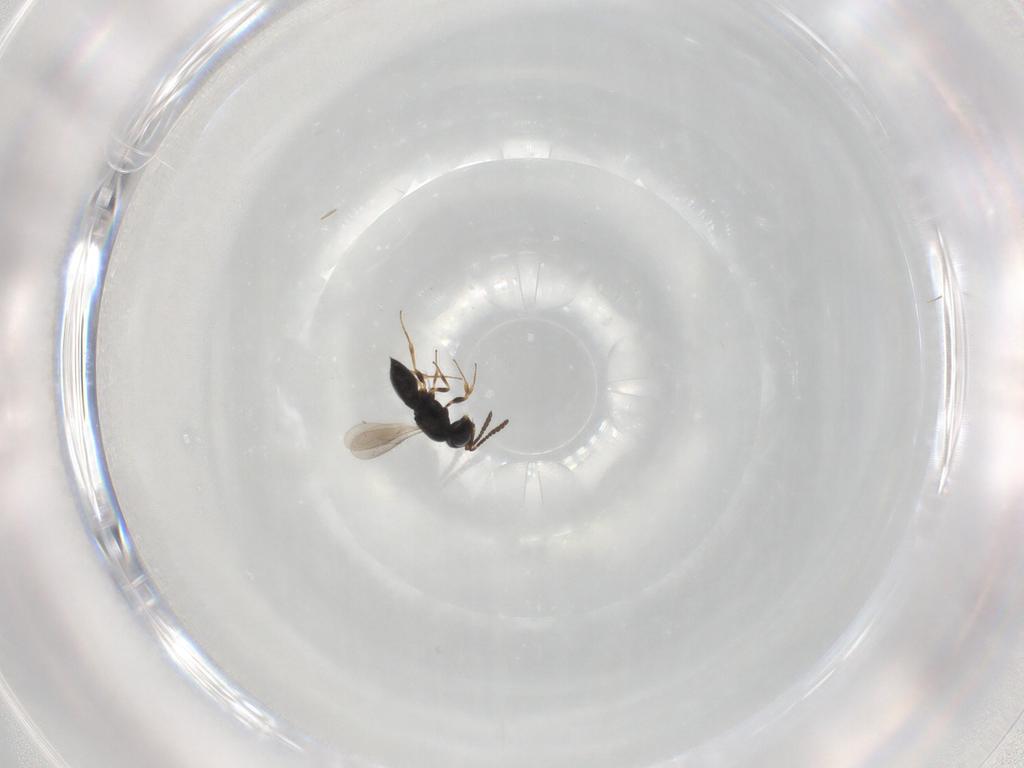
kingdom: Animalia
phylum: Arthropoda
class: Insecta
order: Hymenoptera
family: Scelionidae
